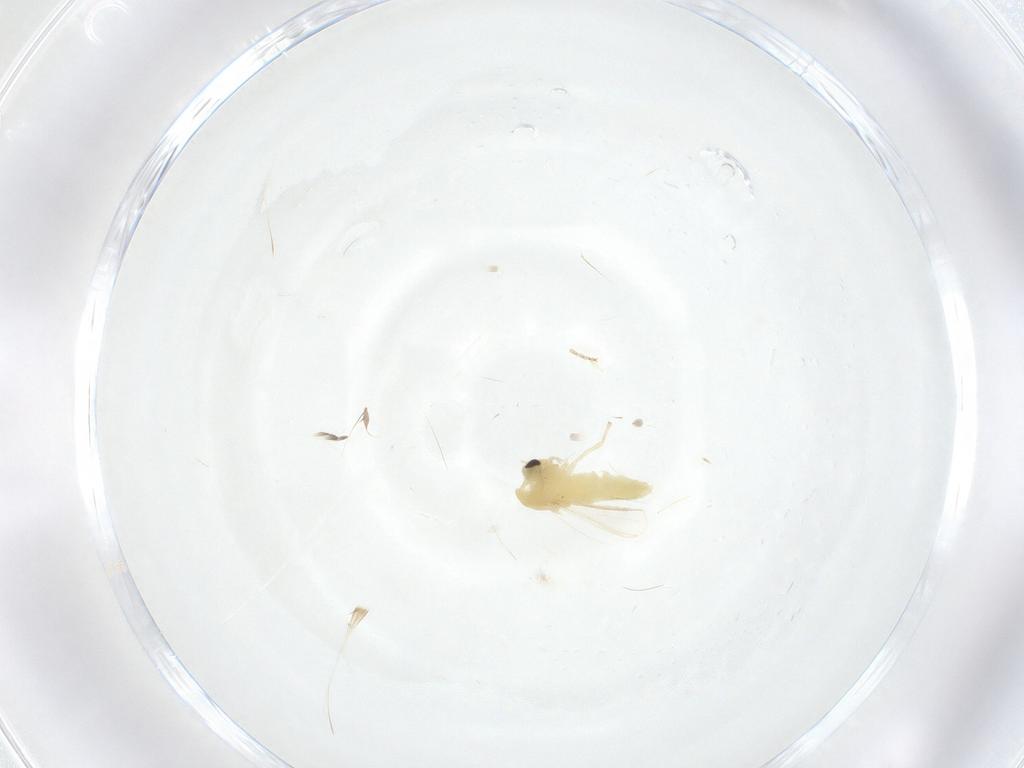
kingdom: Animalia
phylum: Arthropoda
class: Insecta
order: Diptera
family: Chironomidae
